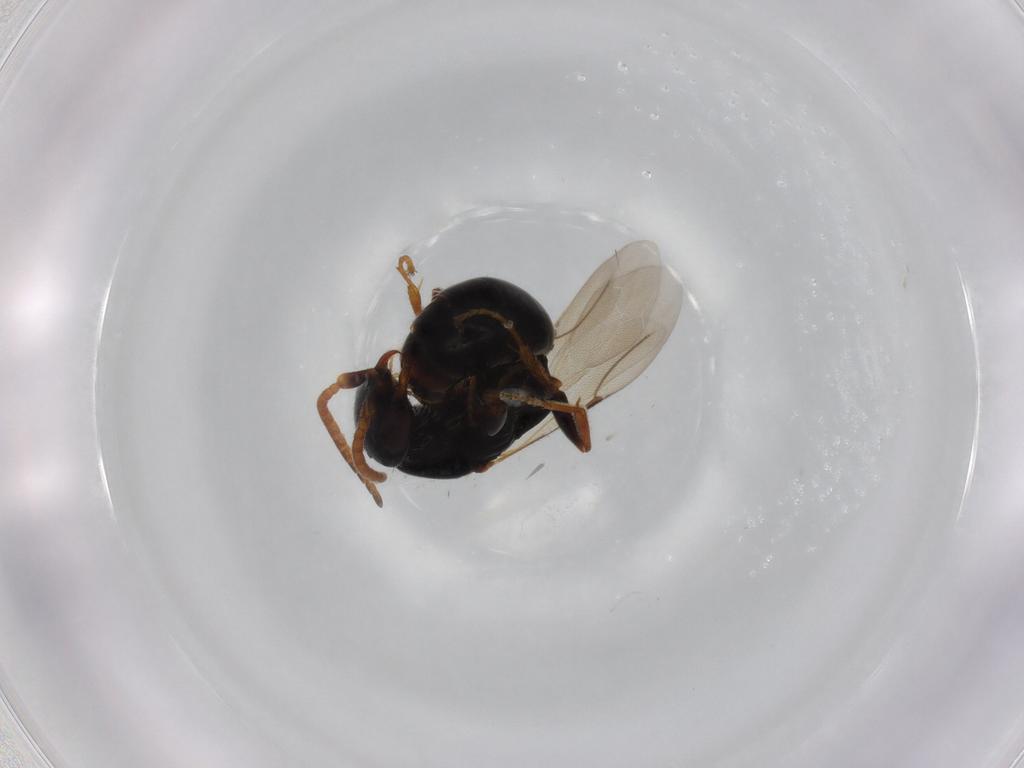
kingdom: Animalia
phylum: Arthropoda
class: Insecta
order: Hymenoptera
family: Bethylidae
